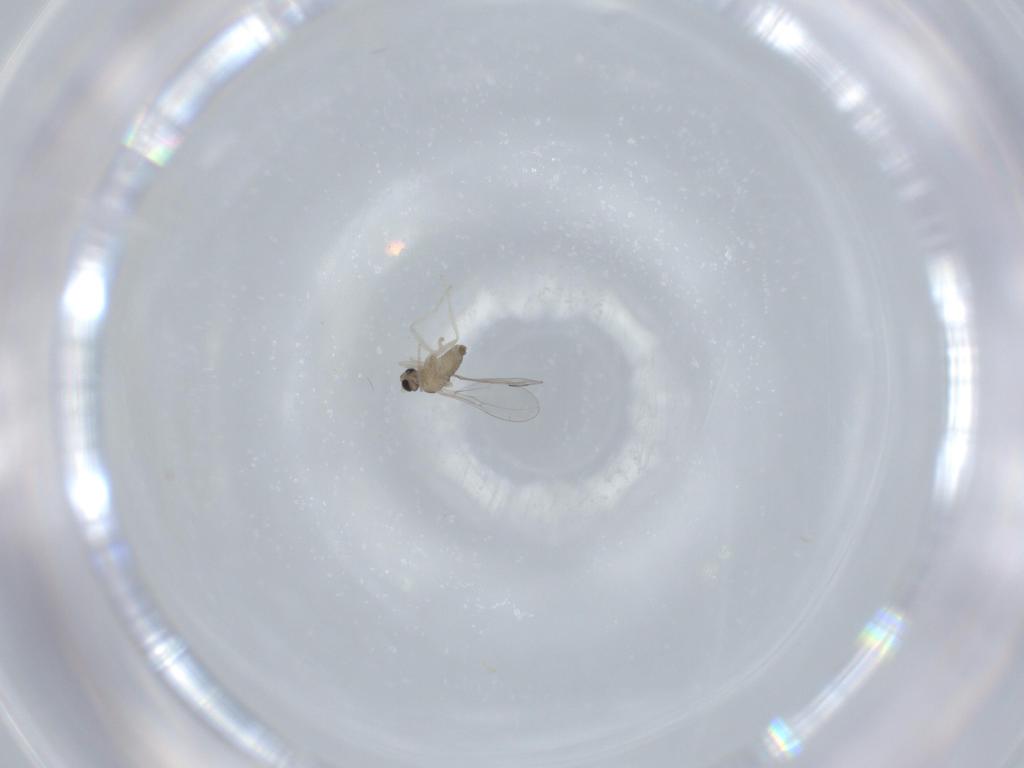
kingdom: Animalia
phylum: Arthropoda
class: Insecta
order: Diptera
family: Cecidomyiidae
